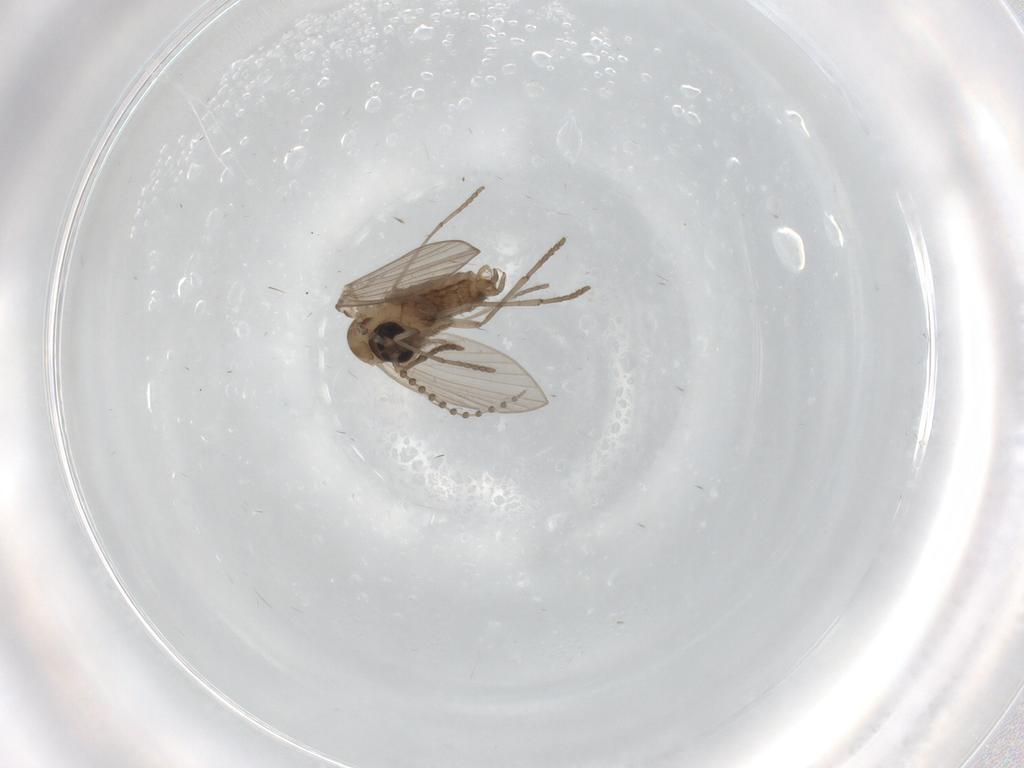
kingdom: Animalia
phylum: Arthropoda
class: Insecta
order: Diptera
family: Psychodidae
